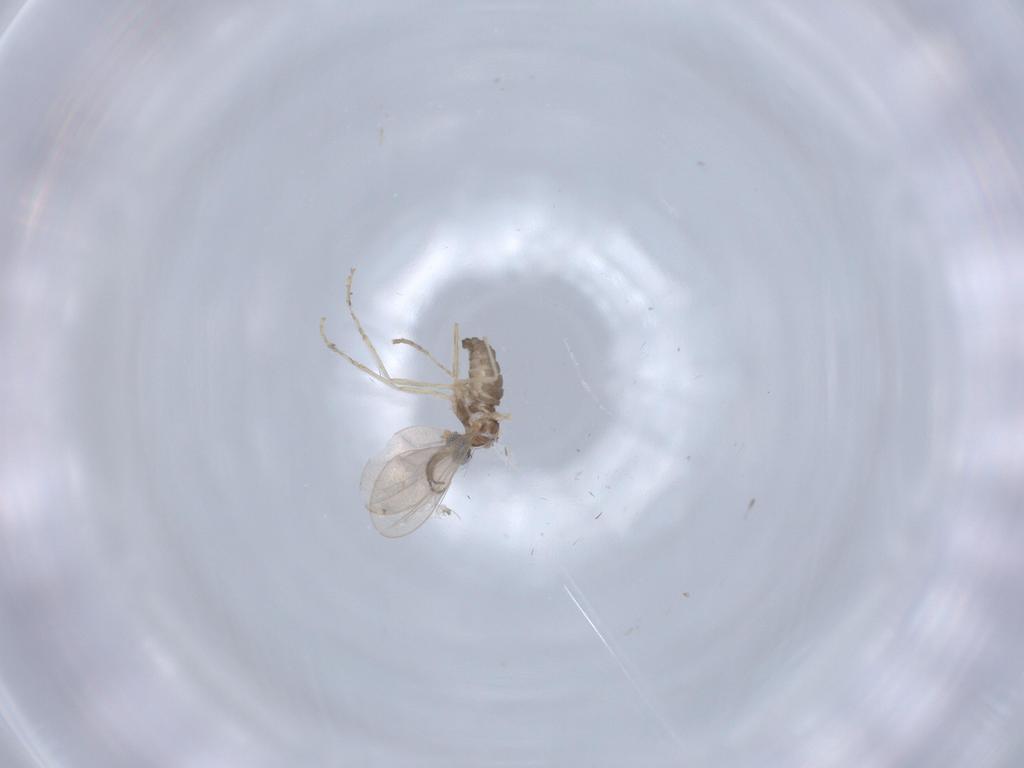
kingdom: Animalia
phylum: Arthropoda
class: Insecta
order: Diptera
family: Cecidomyiidae
